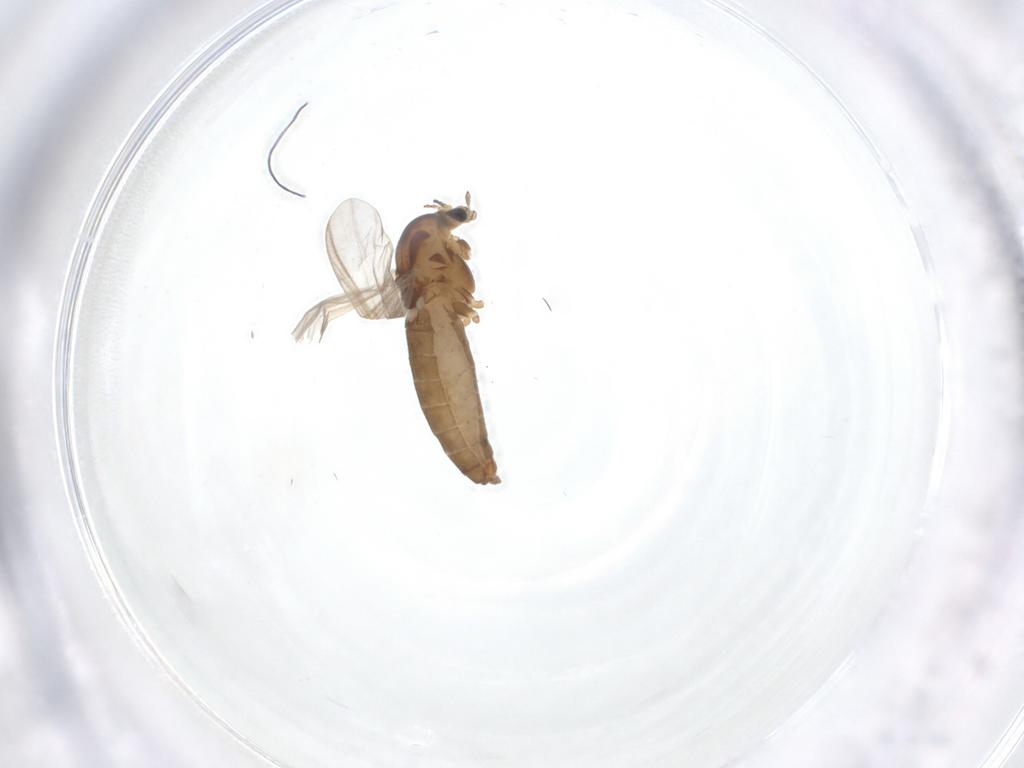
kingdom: Animalia
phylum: Arthropoda
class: Insecta
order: Diptera
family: Chironomidae
